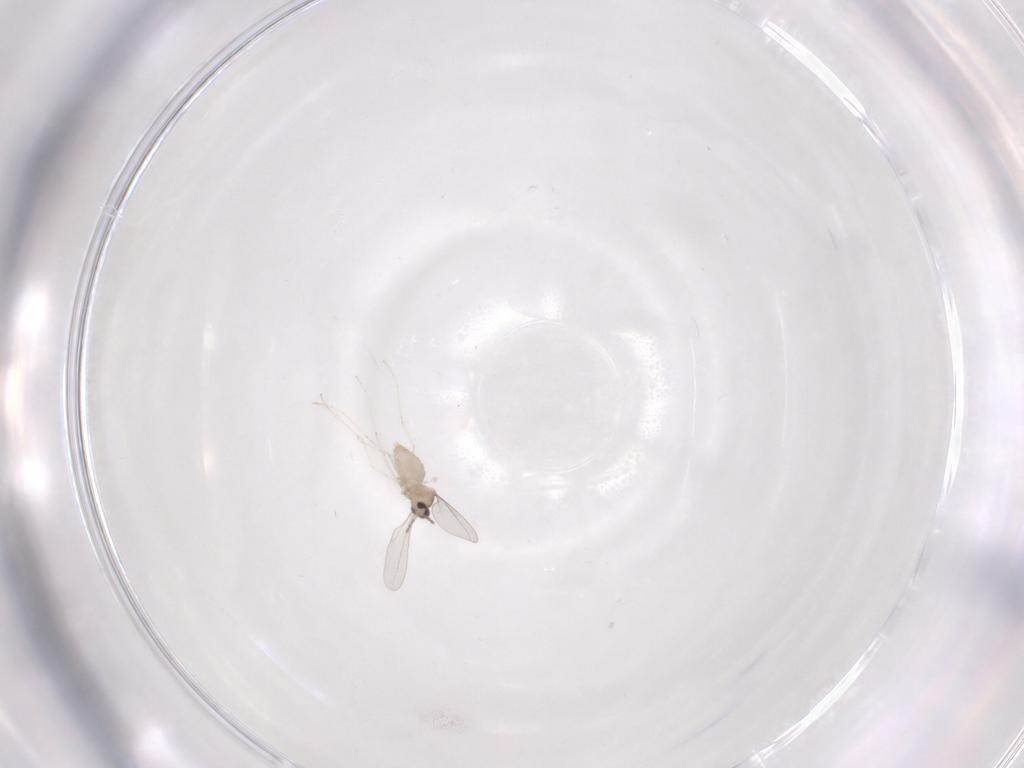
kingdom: Animalia
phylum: Arthropoda
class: Insecta
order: Diptera
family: Cecidomyiidae
